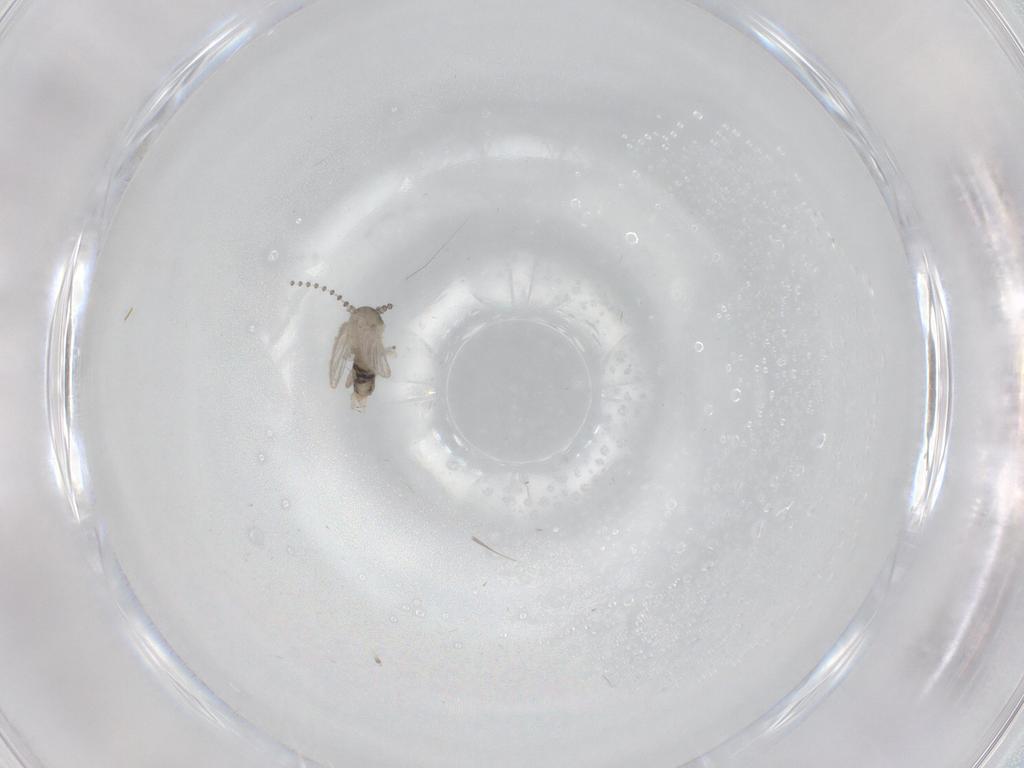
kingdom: Animalia
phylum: Arthropoda
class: Insecta
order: Diptera
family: Psychodidae
